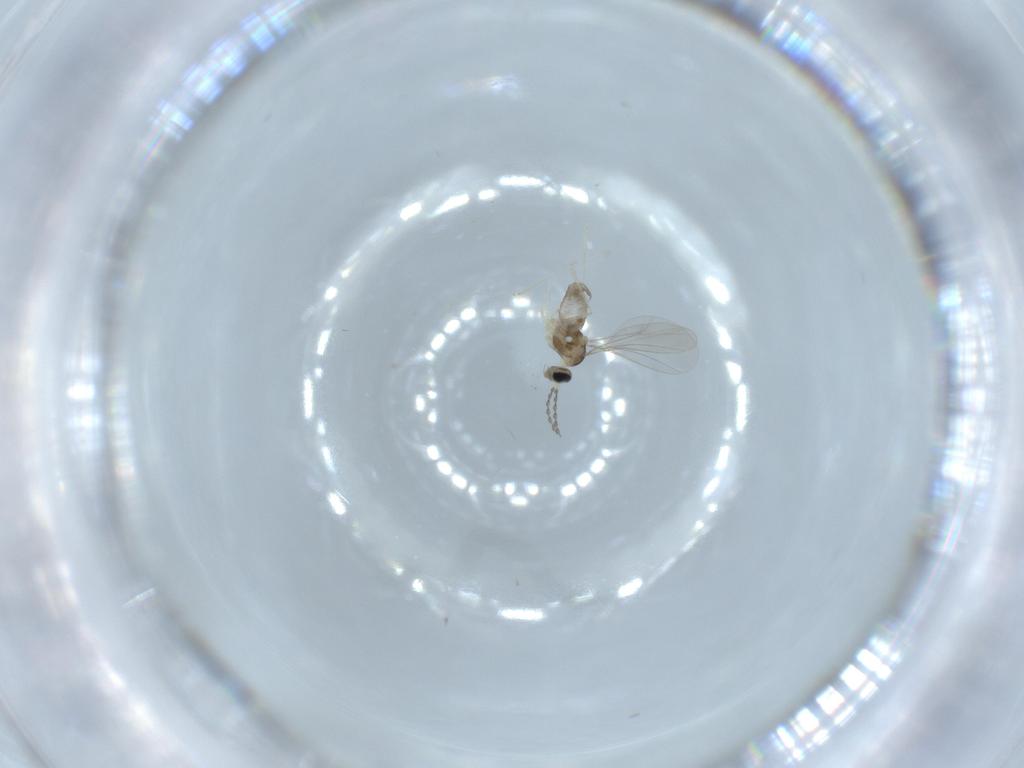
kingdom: Animalia
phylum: Arthropoda
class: Insecta
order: Diptera
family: Cecidomyiidae
